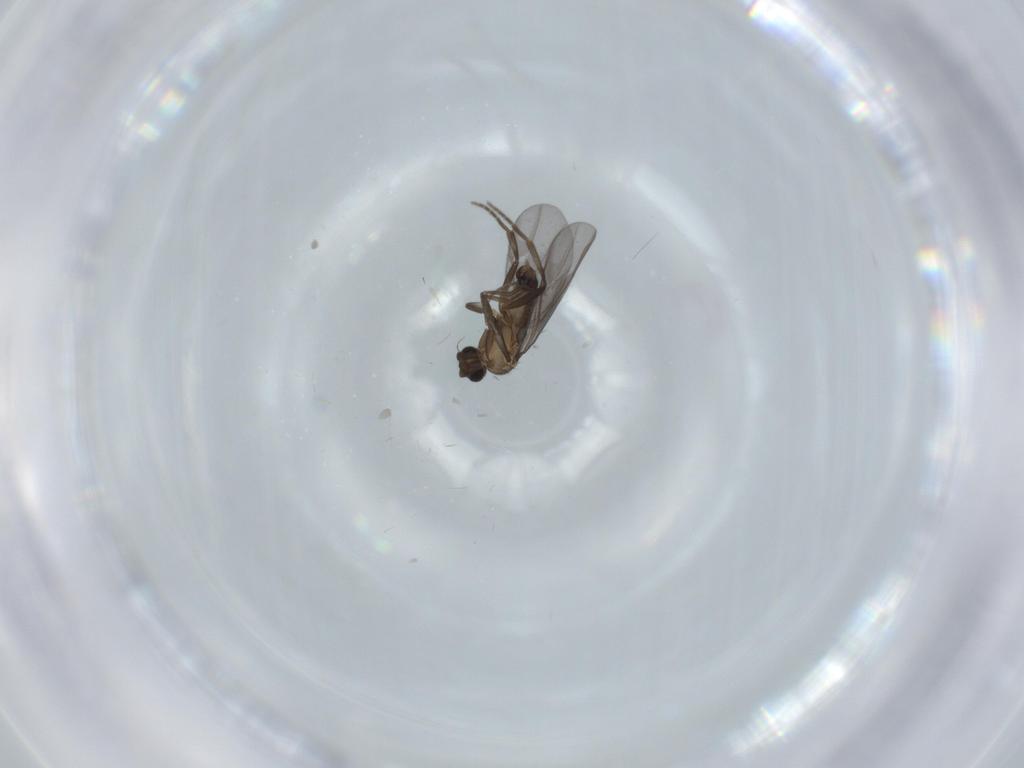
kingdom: Animalia
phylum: Arthropoda
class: Insecta
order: Diptera
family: Phoridae
